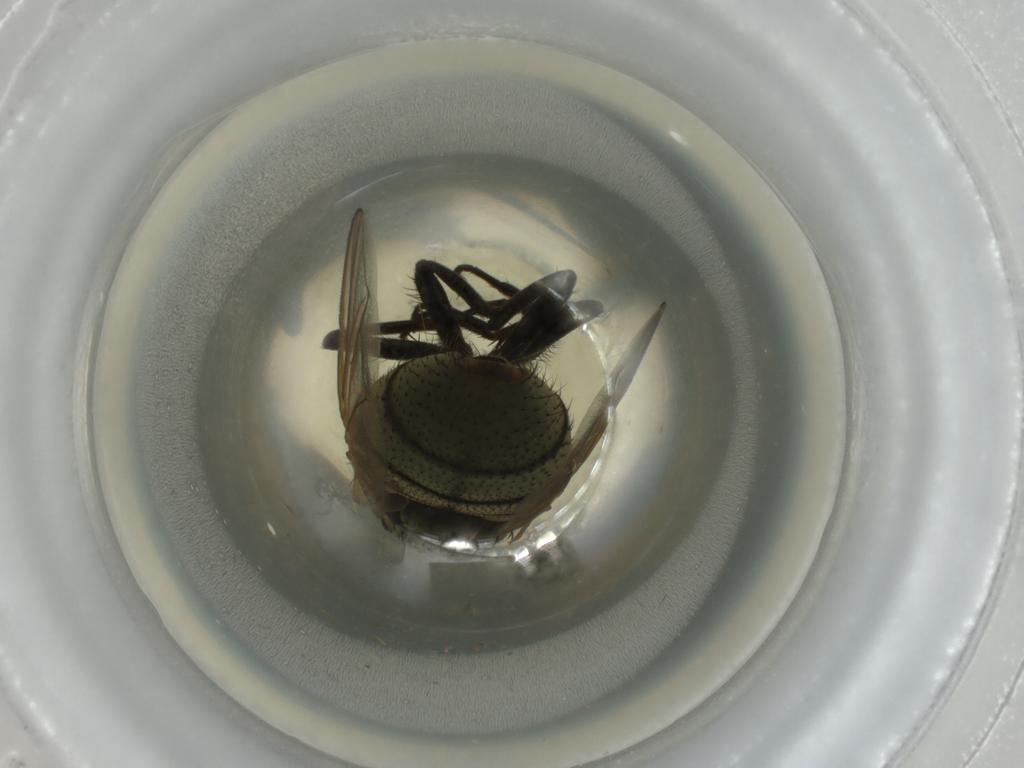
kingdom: Animalia
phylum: Arthropoda
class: Insecta
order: Diptera
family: Muscidae
